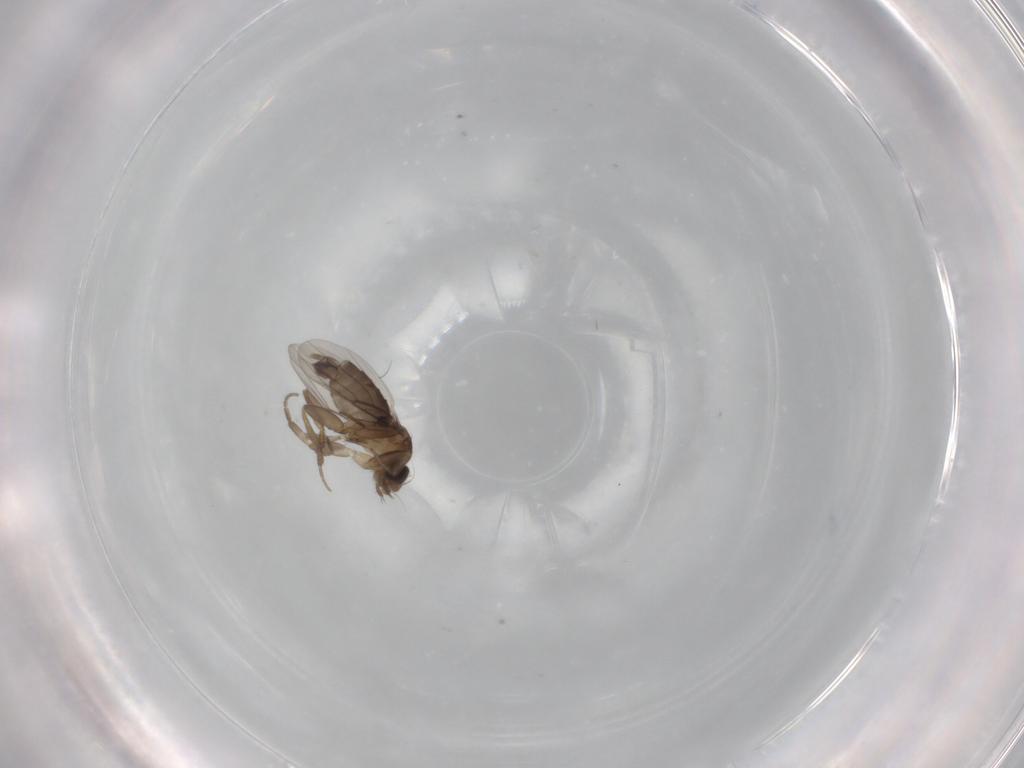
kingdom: Animalia
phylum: Arthropoda
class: Insecta
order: Diptera
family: Phoridae
